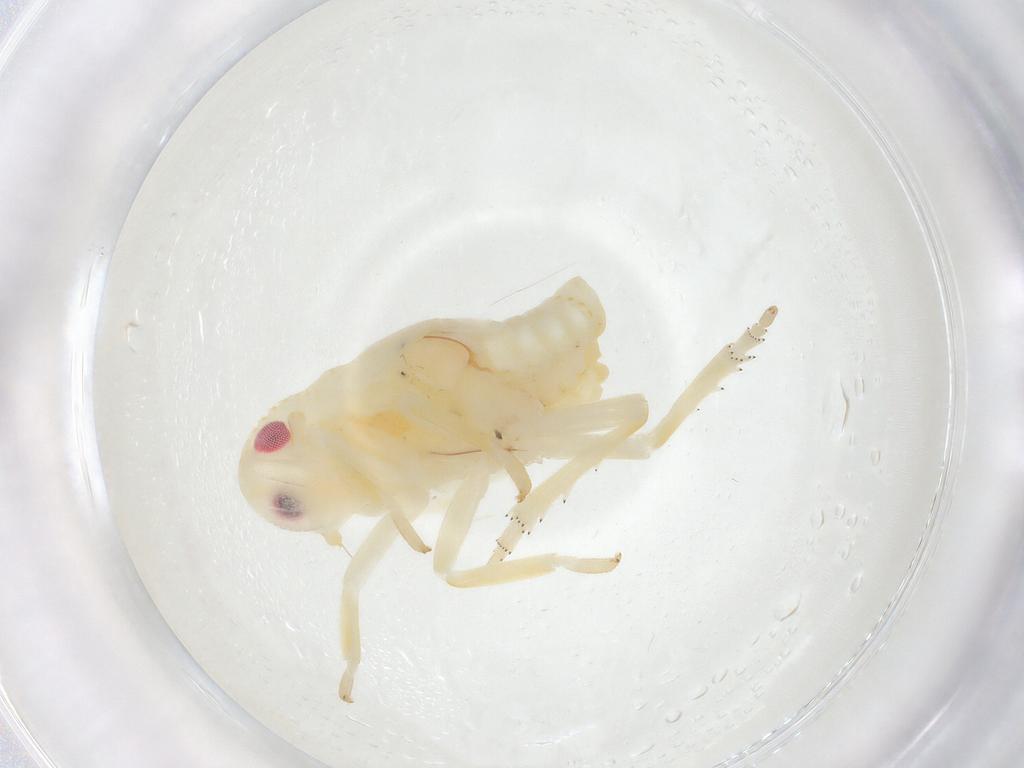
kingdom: Animalia
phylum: Arthropoda
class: Insecta
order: Hemiptera
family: Flatidae
